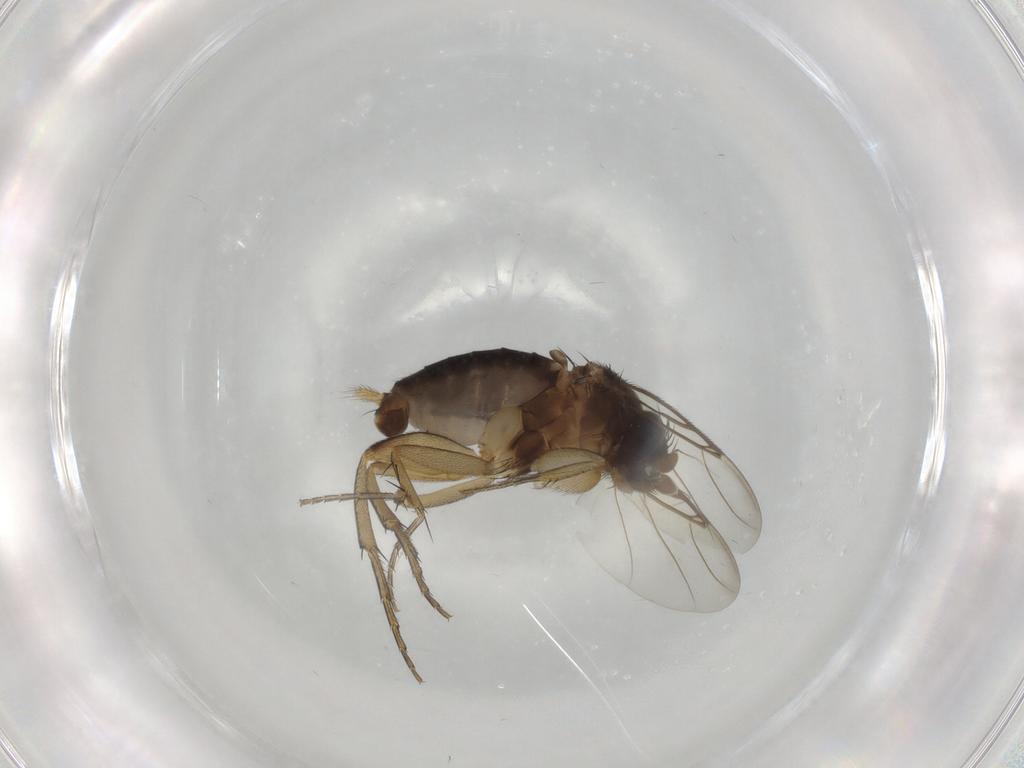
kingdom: Animalia
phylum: Arthropoda
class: Insecta
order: Diptera
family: Phoridae
